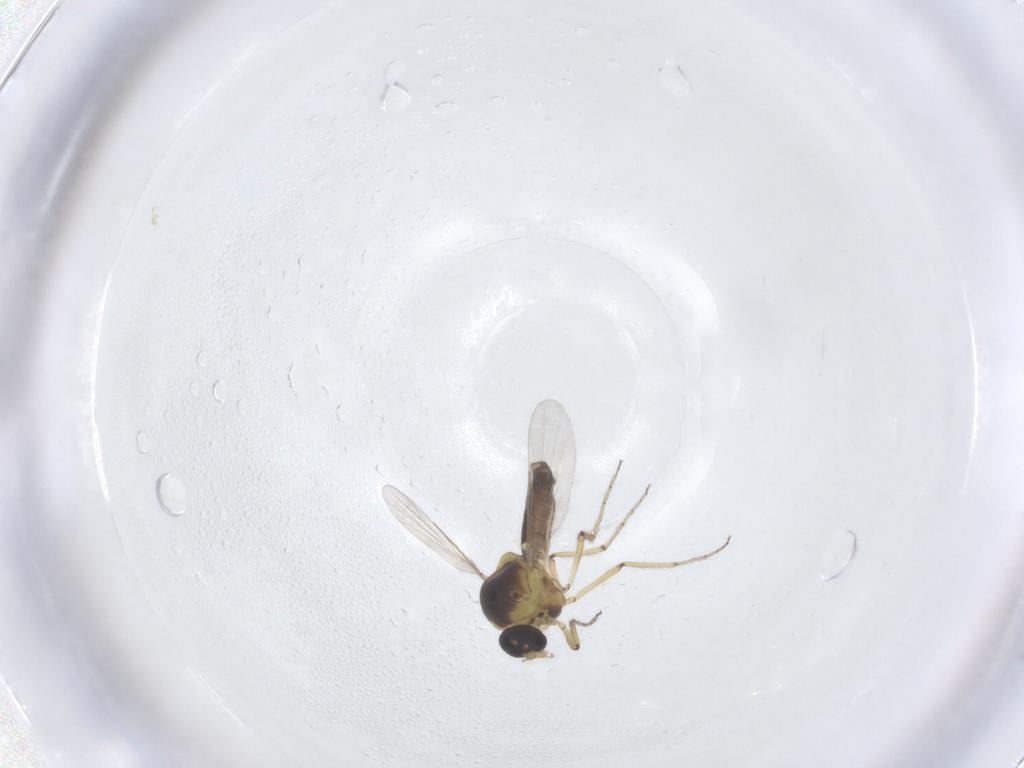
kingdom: Animalia
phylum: Arthropoda
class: Insecta
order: Diptera
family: Ceratopogonidae
